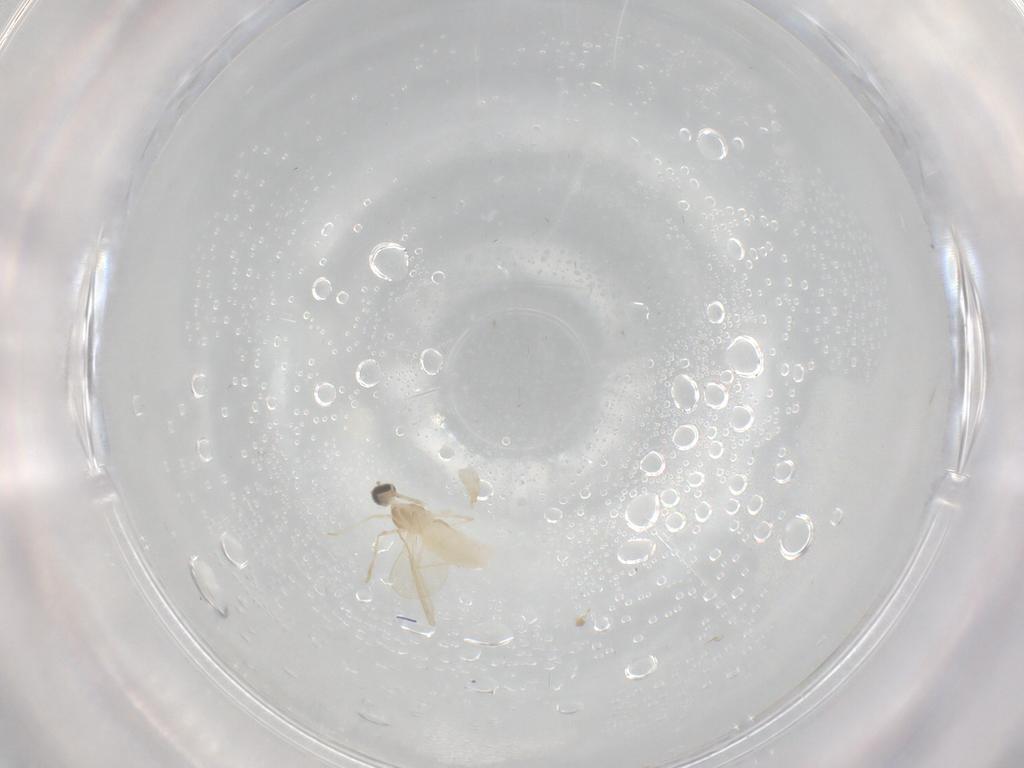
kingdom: Animalia
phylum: Arthropoda
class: Insecta
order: Diptera
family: Cecidomyiidae
